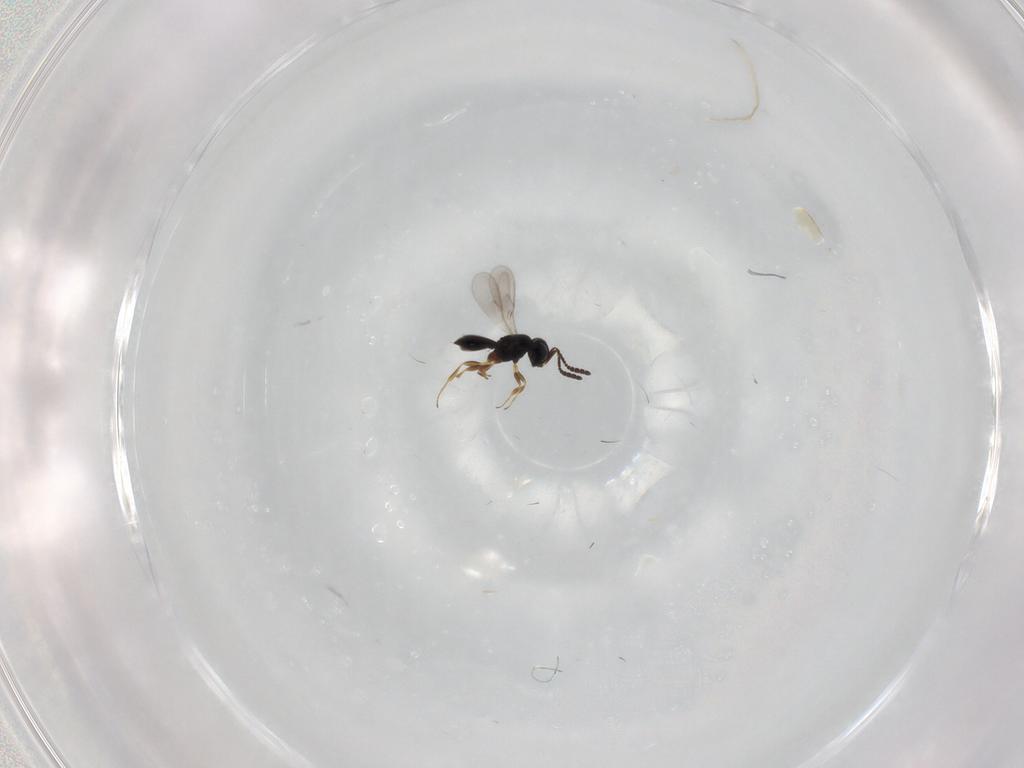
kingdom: Animalia
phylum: Arthropoda
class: Insecta
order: Hymenoptera
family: Scelionidae
